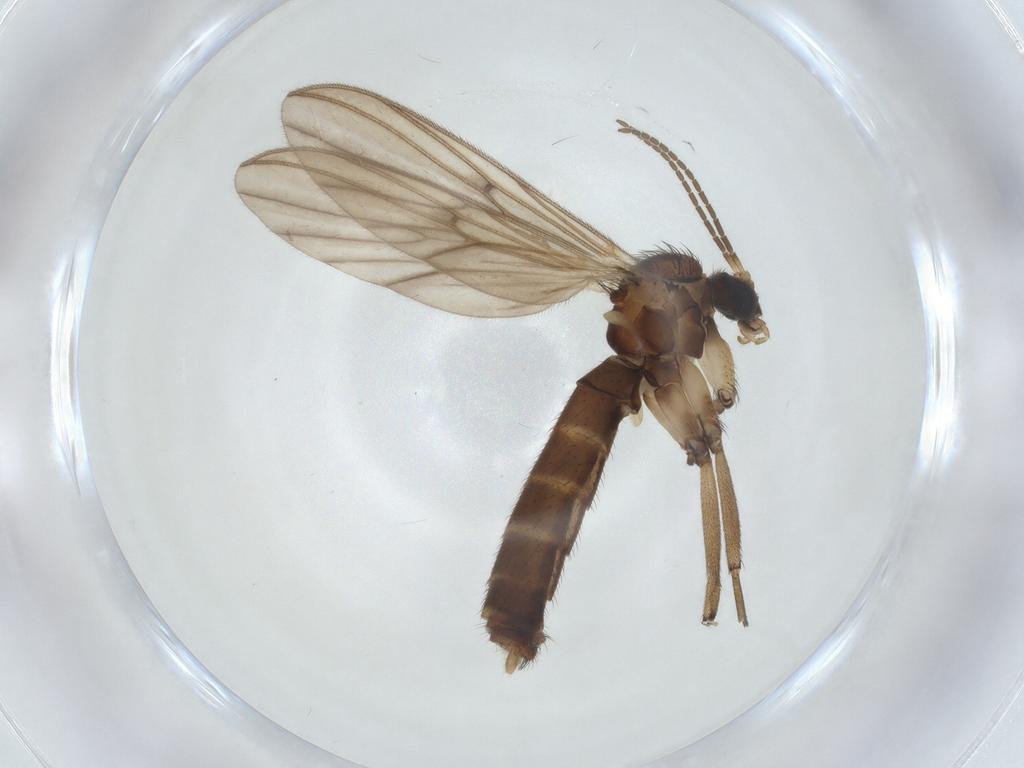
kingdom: Animalia
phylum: Arthropoda
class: Insecta
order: Diptera
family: Mycetophilidae
